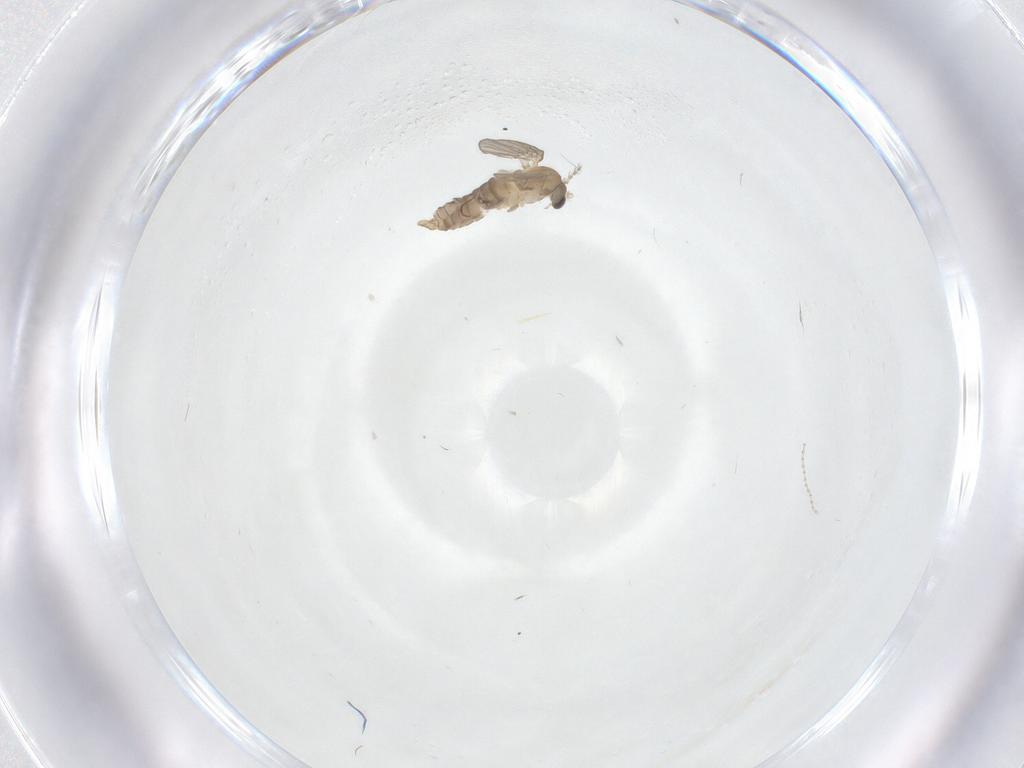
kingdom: Animalia
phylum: Arthropoda
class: Insecta
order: Diptera
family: Psychodidae
